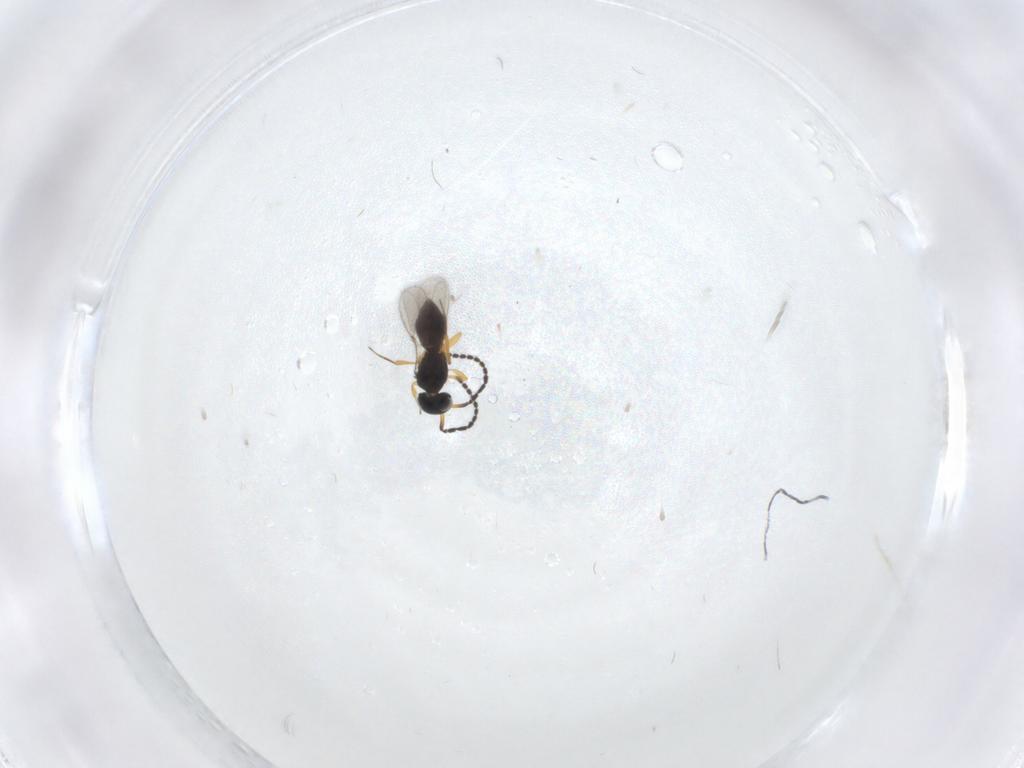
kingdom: Animalia
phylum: Arthropoda
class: Insecta
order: Hymenoptera
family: Scelionidae
